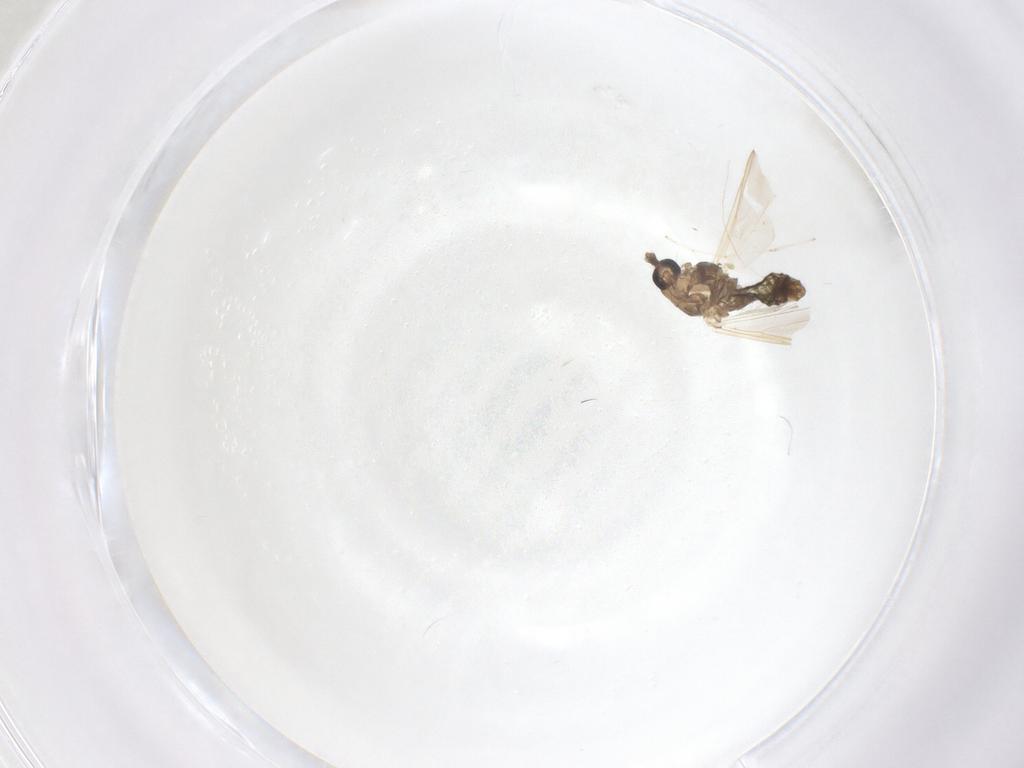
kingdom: Animalia
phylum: Arthropoda
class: Insecta
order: Diptera
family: Cecidomyiidae
